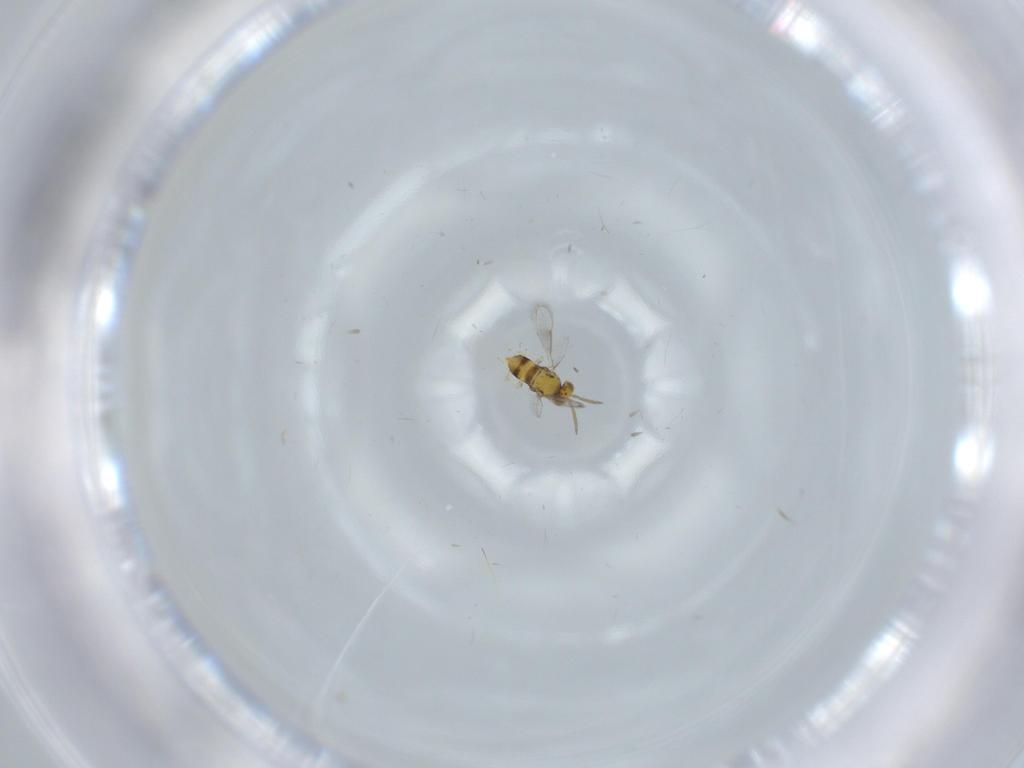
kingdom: Animalia
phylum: Arthropoda
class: Insecta
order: Hymenoptera
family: Aphelinidae
